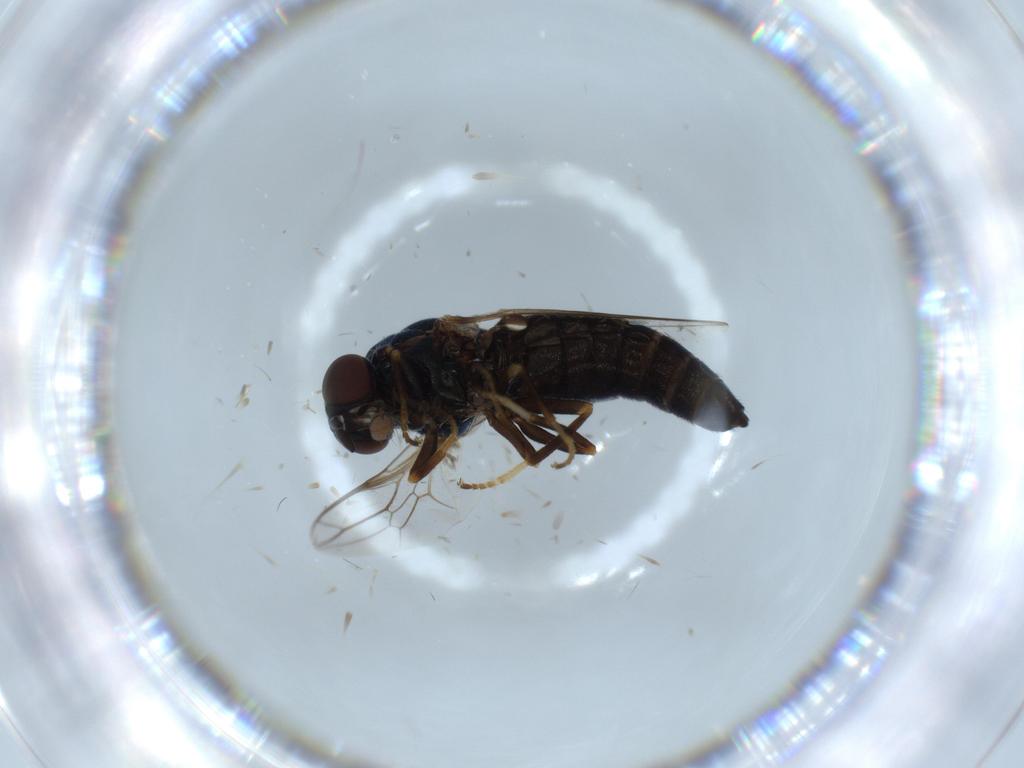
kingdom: Animalia
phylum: Arthropoda
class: Insecta
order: Diptera
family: Scenopinidae
